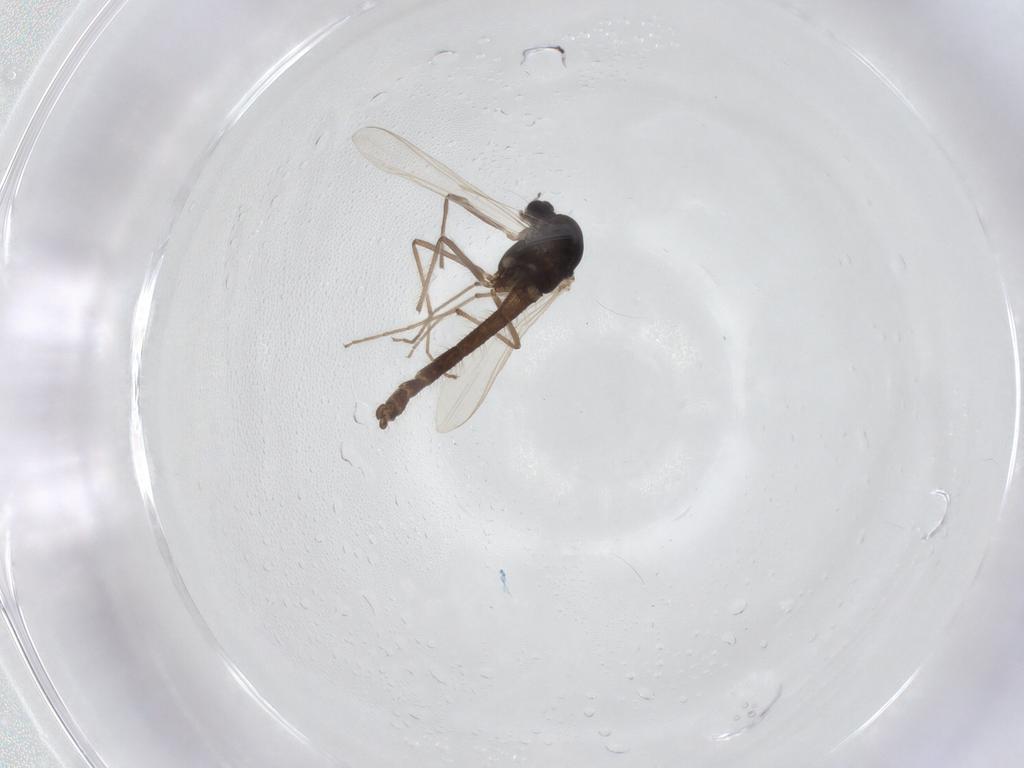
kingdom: Animalia
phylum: Arthropoda
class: Insecta
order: Diptera
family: Chironomidae
